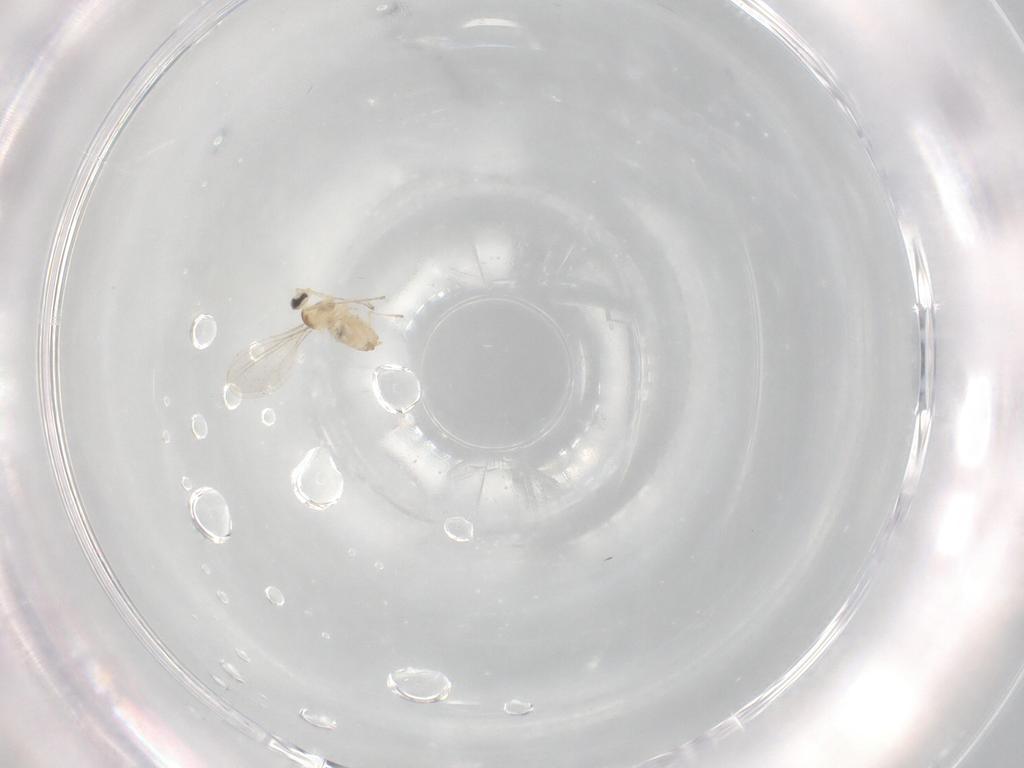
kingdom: Animalia
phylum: Arthropoda
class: Insecta
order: Diptera
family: Cecidomyiidae
